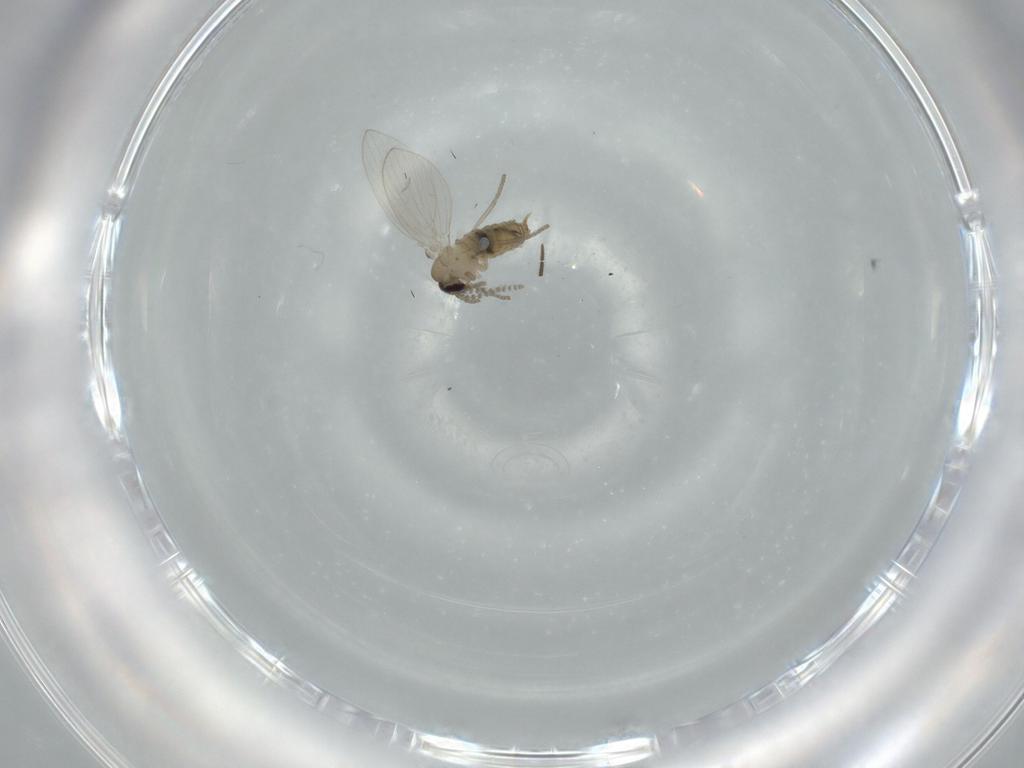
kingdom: Animalia
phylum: Arthropoda
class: Insecta
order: Diptera
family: Psychodidae
